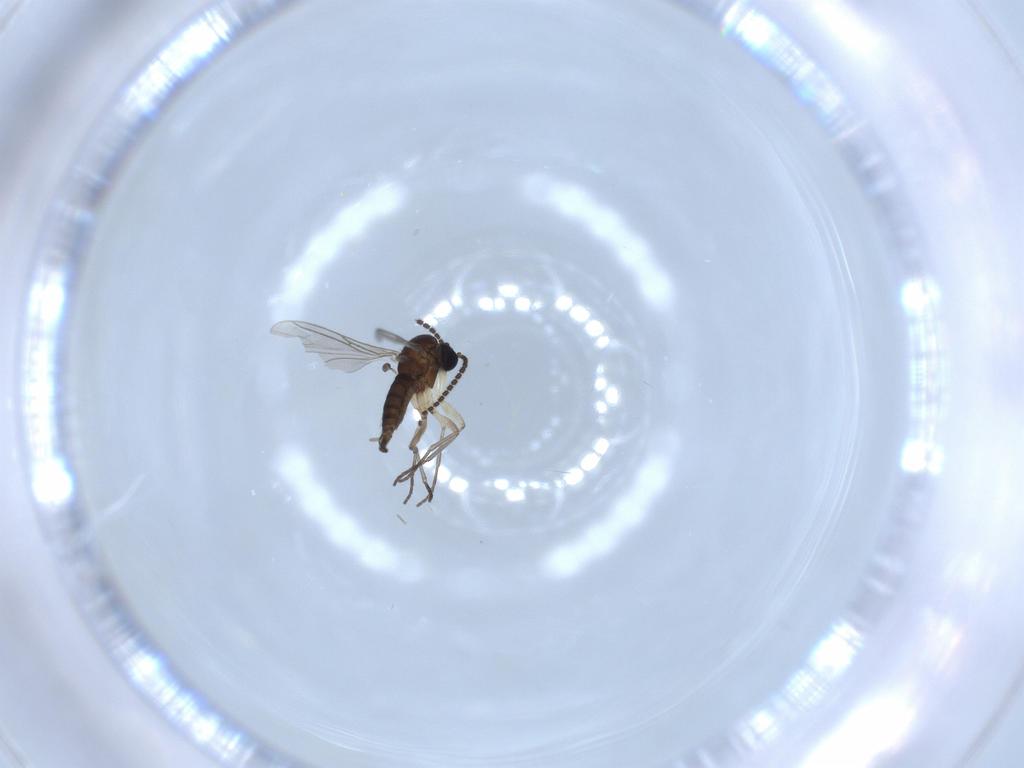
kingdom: Animalia
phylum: Arthropoda
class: Insecta
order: Diptera
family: Sciaridae
